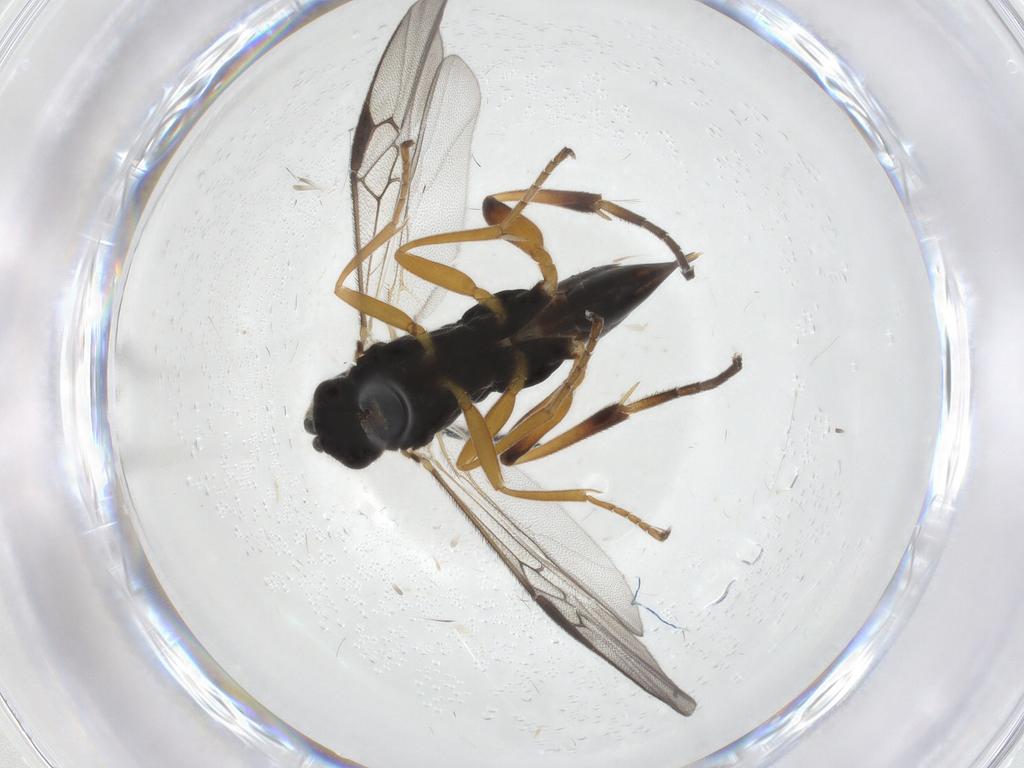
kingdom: Animalia
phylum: Arthropoda
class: Insecta
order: Hymenoptera
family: Braconidae
